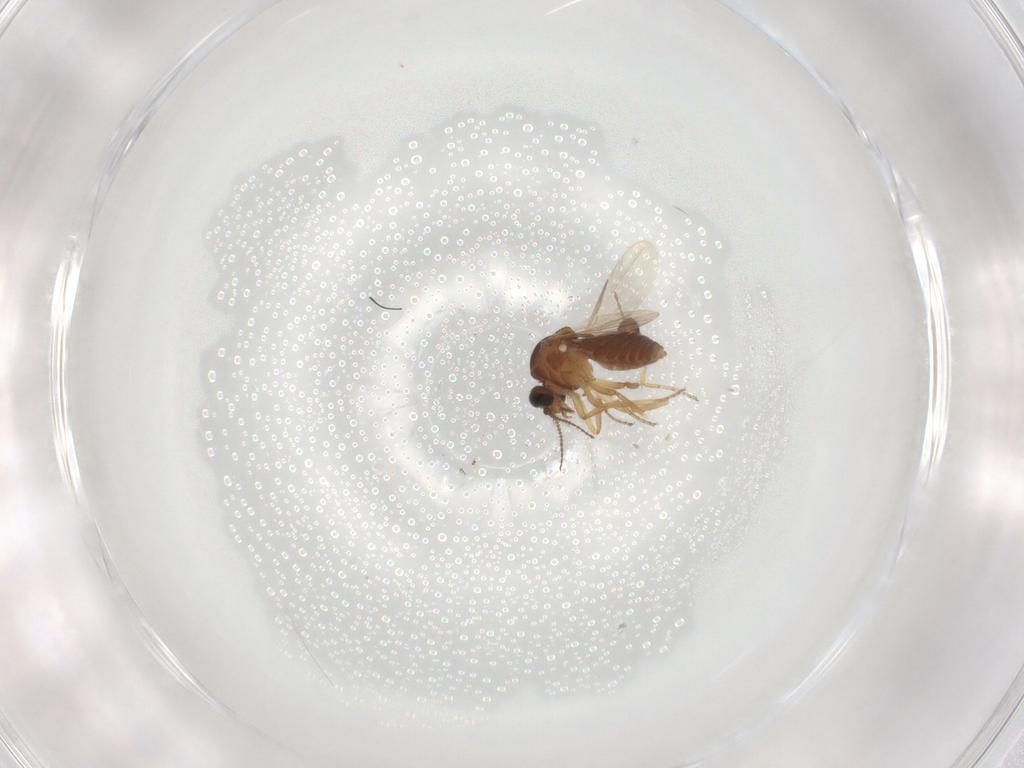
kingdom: Animalia
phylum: Arthropoda
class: Insecta
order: Diptera
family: Ceratopogonidae
